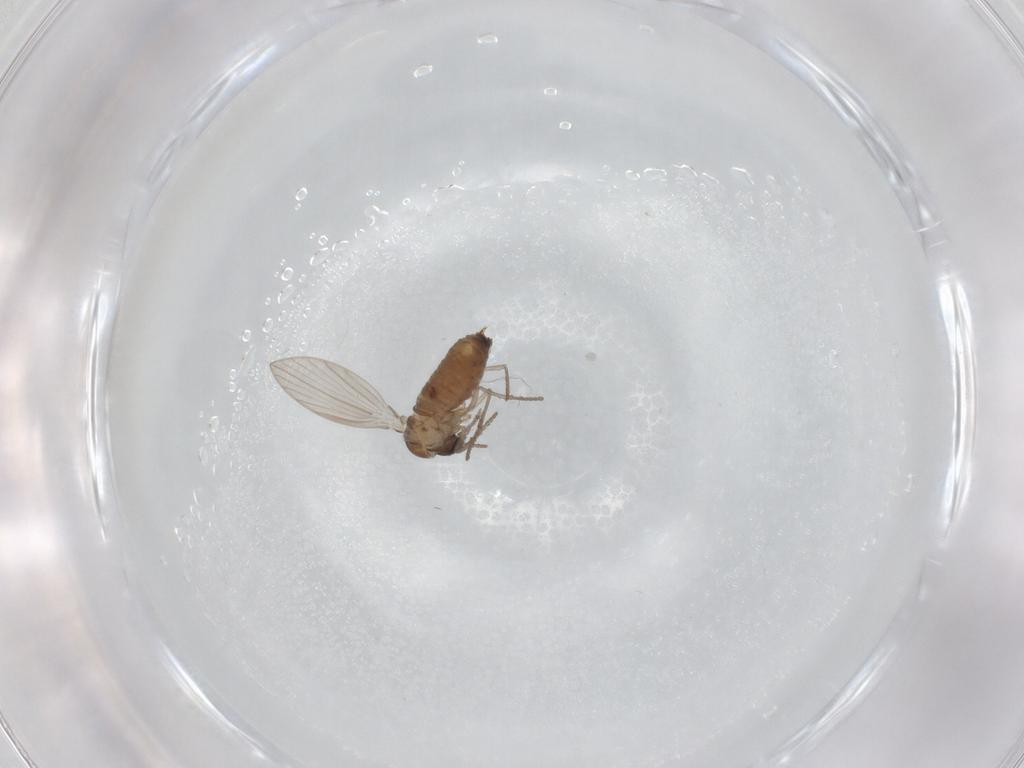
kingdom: Animalia
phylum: Arthropoda
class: Insecta
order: Diptera
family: Psychodidae
